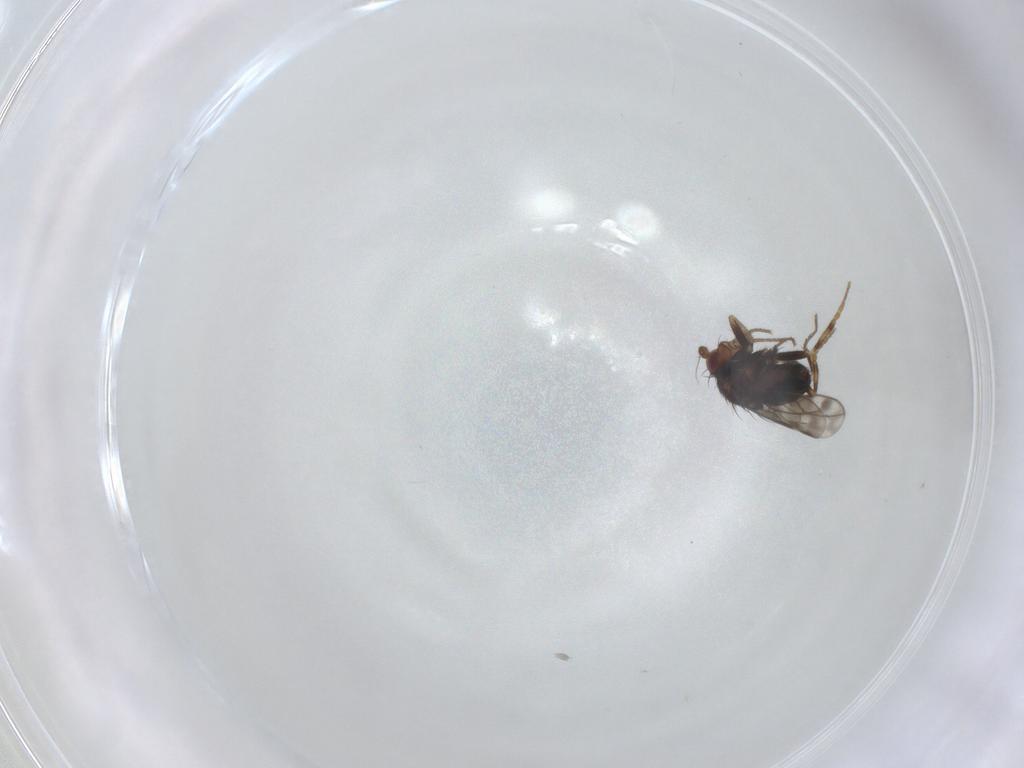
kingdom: Animalia
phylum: Arthropoda
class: Insecta
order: Diptera
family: Sphaeroceridae
